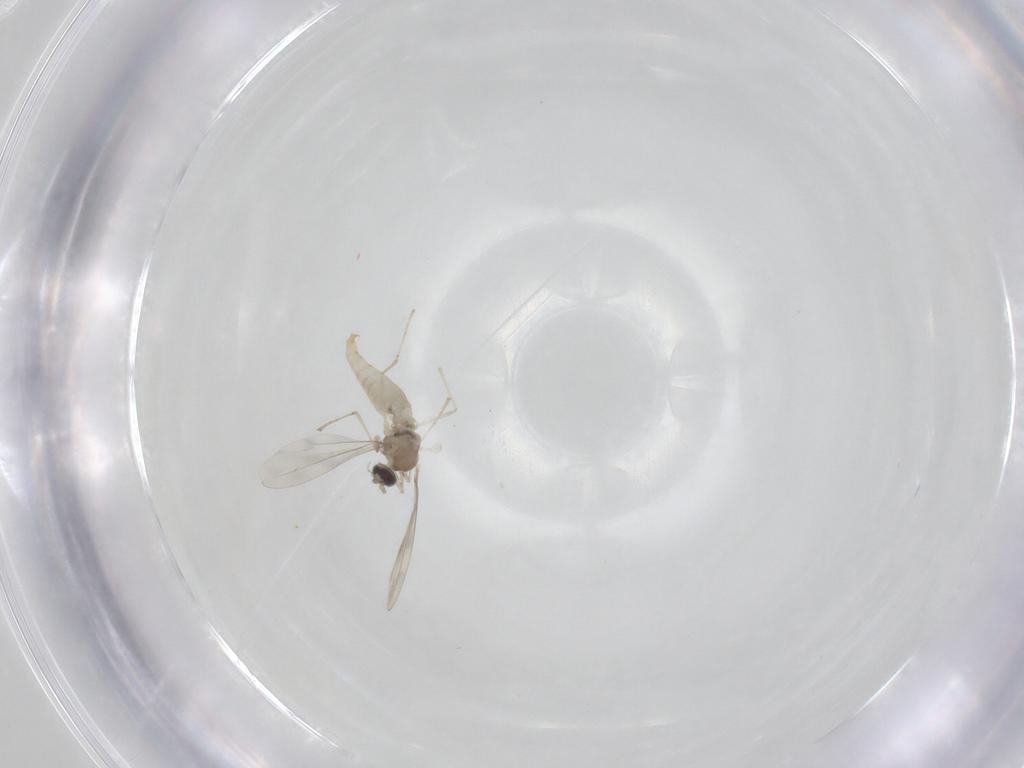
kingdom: Animalia
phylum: Arthropoda
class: Insecta
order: Diptera
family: Cecidomyiidae
